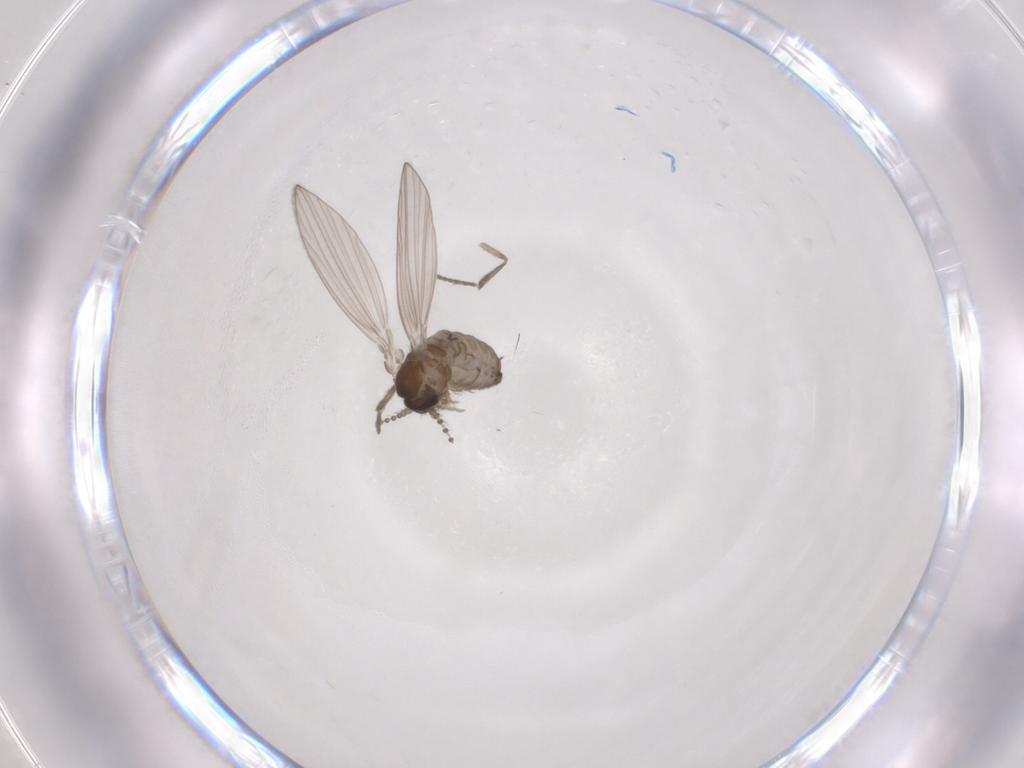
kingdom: Animalia
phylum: Arthropoda
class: Insecta
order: Diptera
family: Psychodidae
